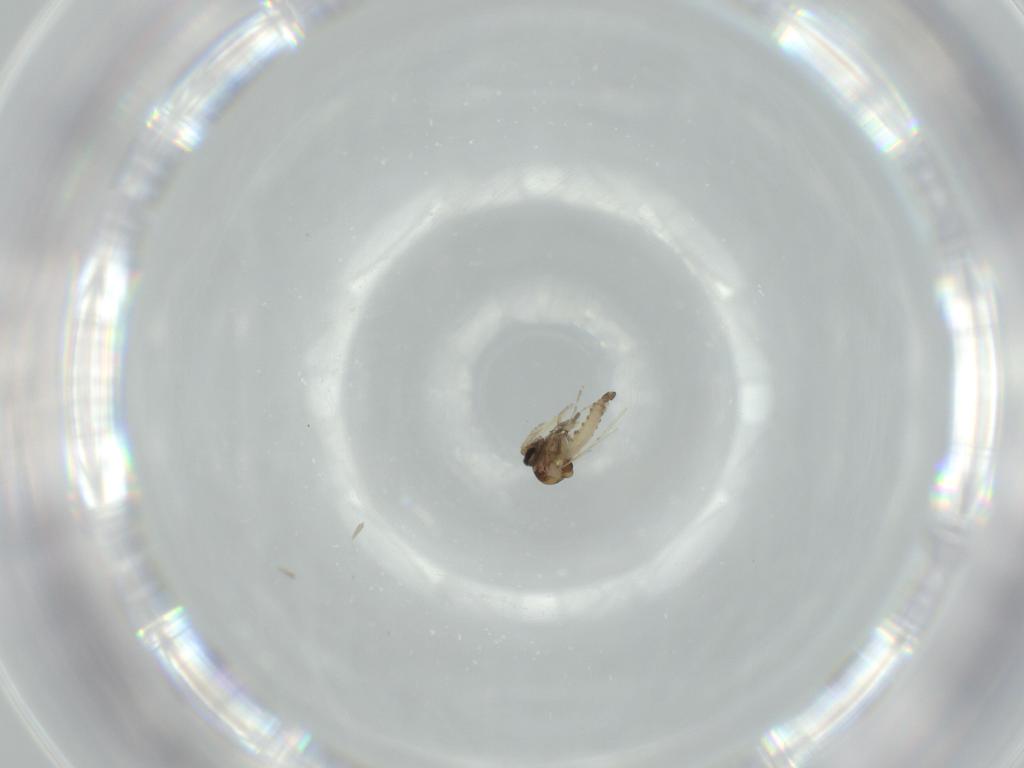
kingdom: Animalia
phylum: Arthropoda
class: Insecta
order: Diptera
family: Ceratopogonidae
